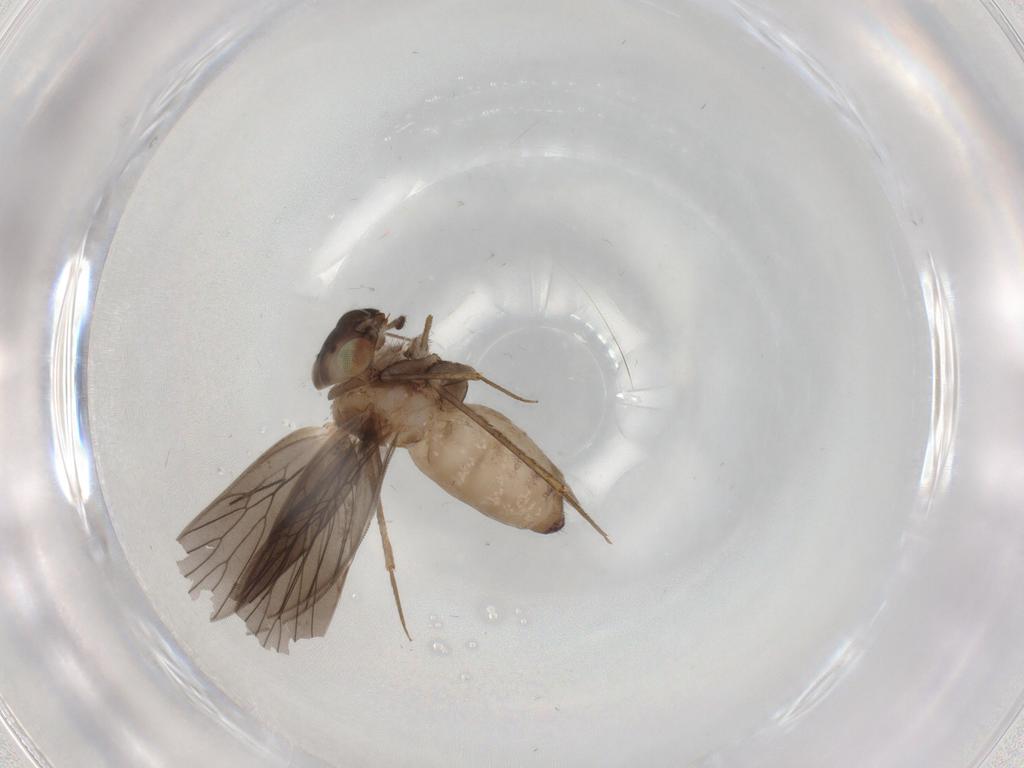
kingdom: Animalia
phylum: Arthropoda
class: Insecta
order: Psocodea
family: Lepidopsocidae
